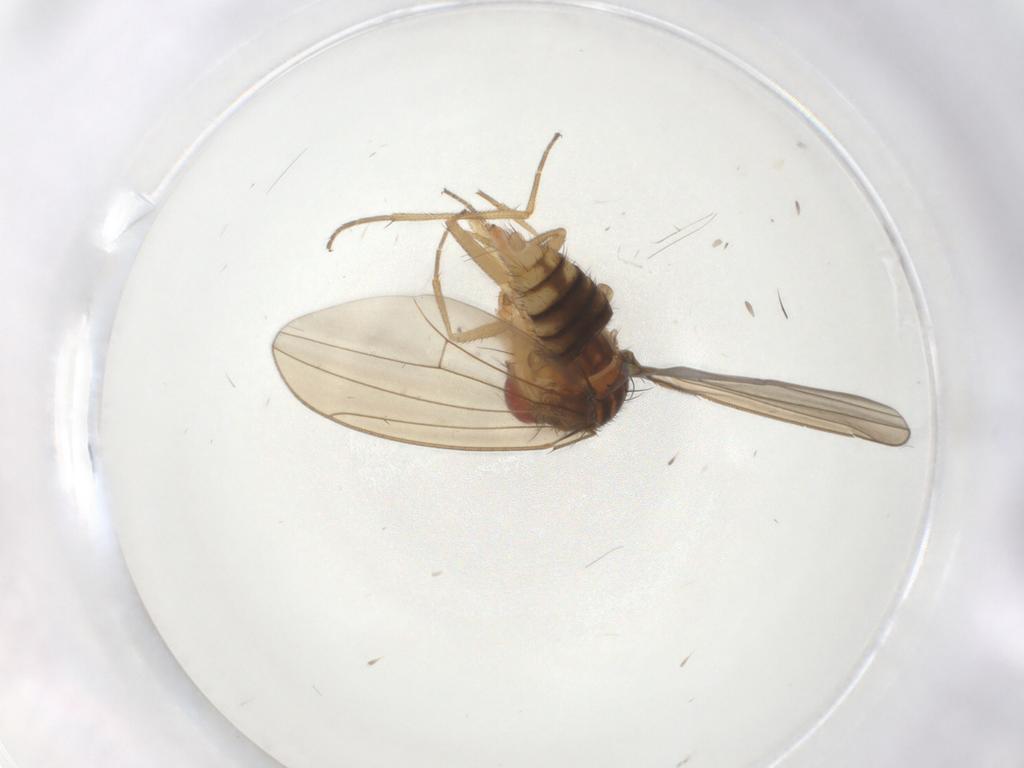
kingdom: Animalia
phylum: Arthropoda
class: Insecta
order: Diptera
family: Drosophilidae
